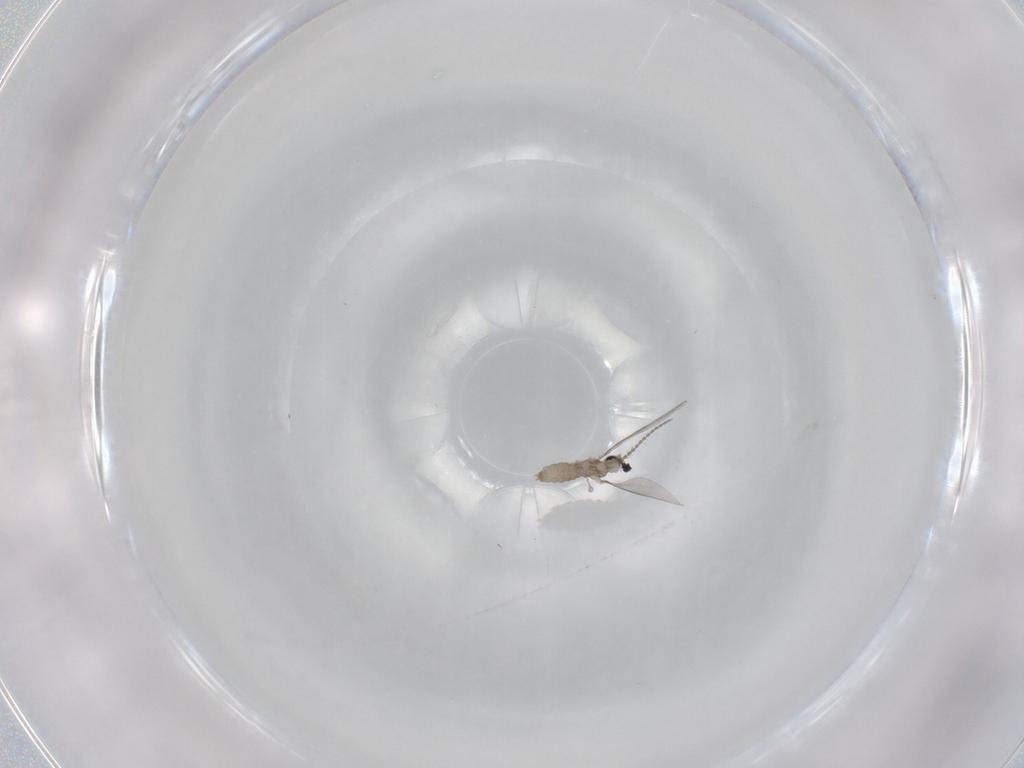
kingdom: Animalia
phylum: Arthropoda
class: Insecta
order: Diptera
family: Cecidomyiidae
